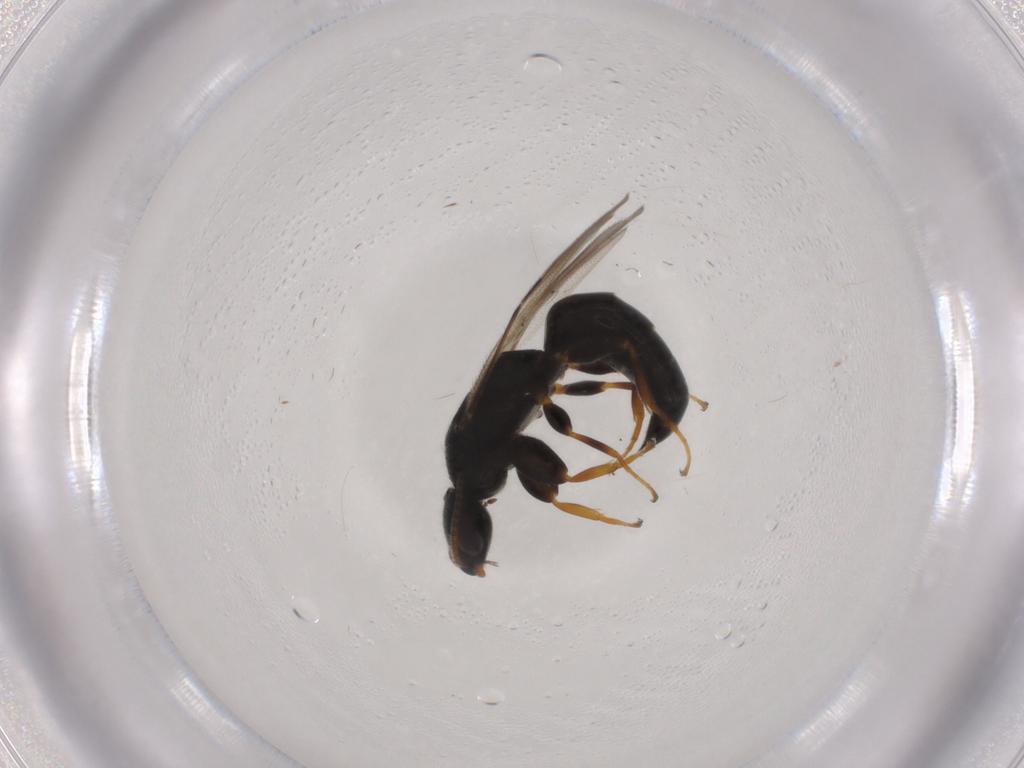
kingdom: Animalia
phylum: Arthropoda
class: Insecta
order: Hymenoptera
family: Bethylidae
